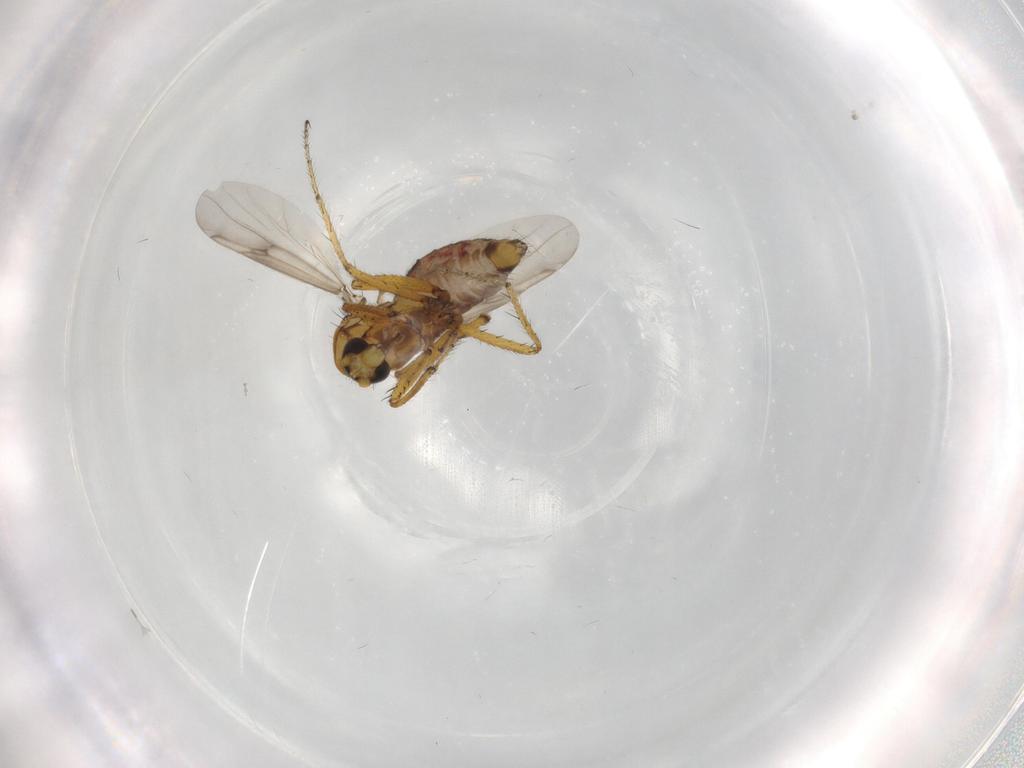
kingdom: Animalia
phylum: Arthropoda
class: Insecta
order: Diptera
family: Ceratopogonidae
